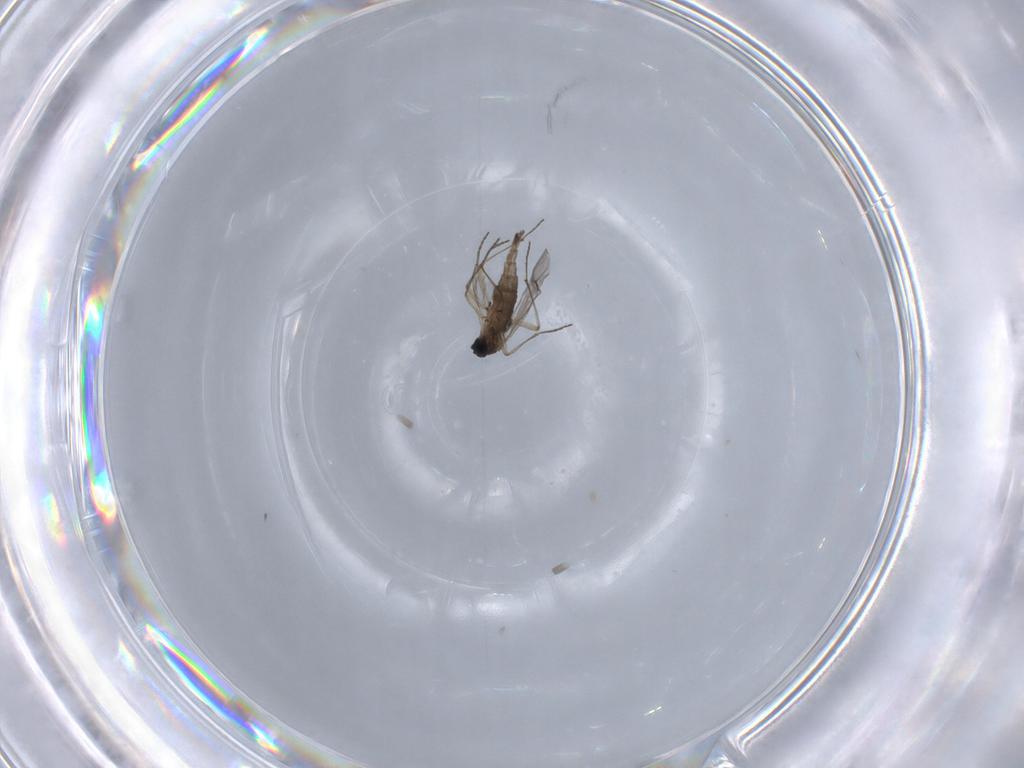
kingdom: Animalia
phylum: Arthropoda
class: Insecta
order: Diptera
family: Sciaridae
